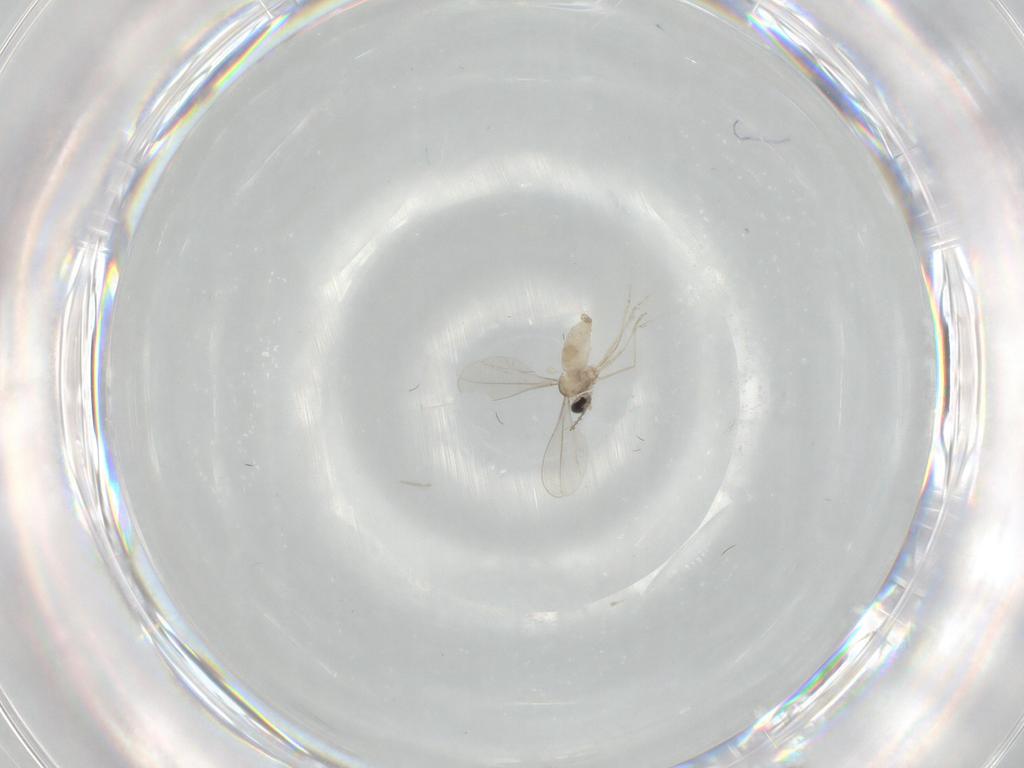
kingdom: Animalia
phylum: Arthropoda
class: Insecta
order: Diptera
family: Cecidomyiidae
